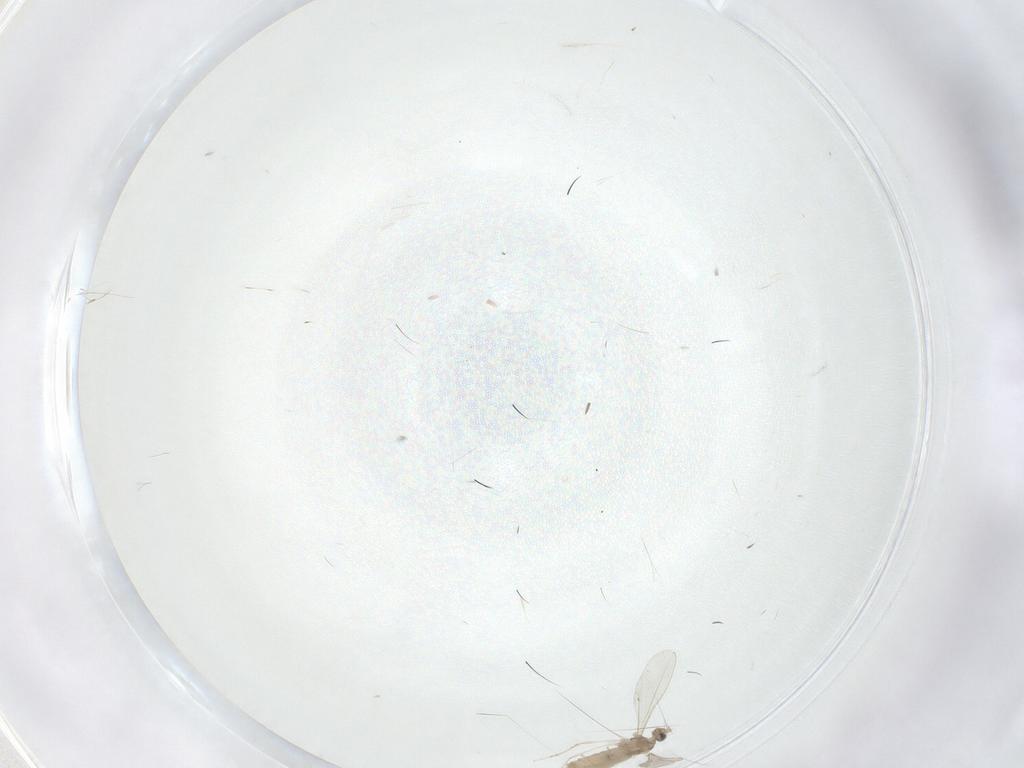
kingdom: Animalia
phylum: Arthropoda
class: Insecta
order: Diptera
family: Cecidomyiidae
